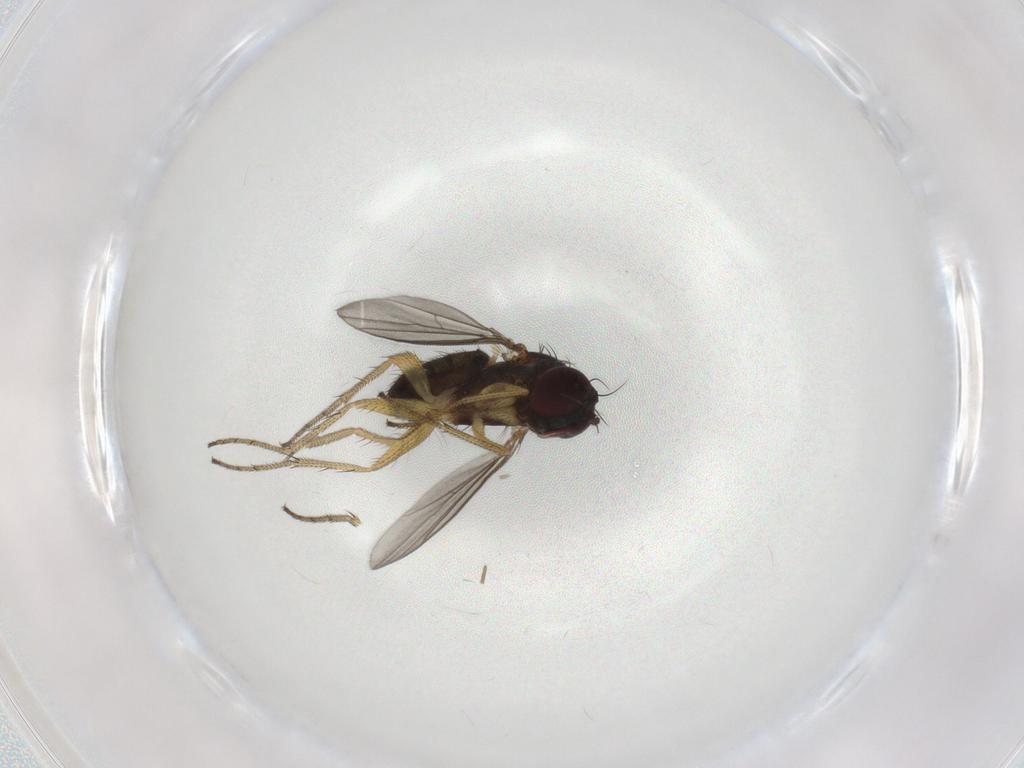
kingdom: Animalia
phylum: Arthropoda
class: Insecta
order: Diptera
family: Dolichopodidae
